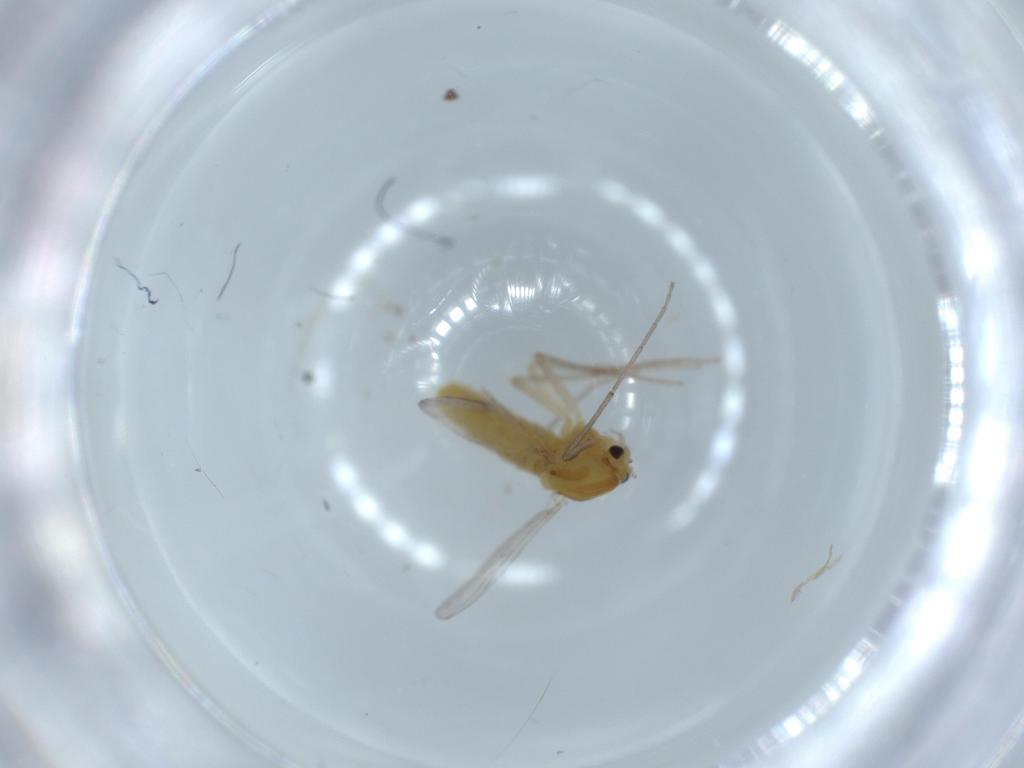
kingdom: Animalia
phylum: Arthropoda
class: Insecta
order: Diptera
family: Chironomidae
